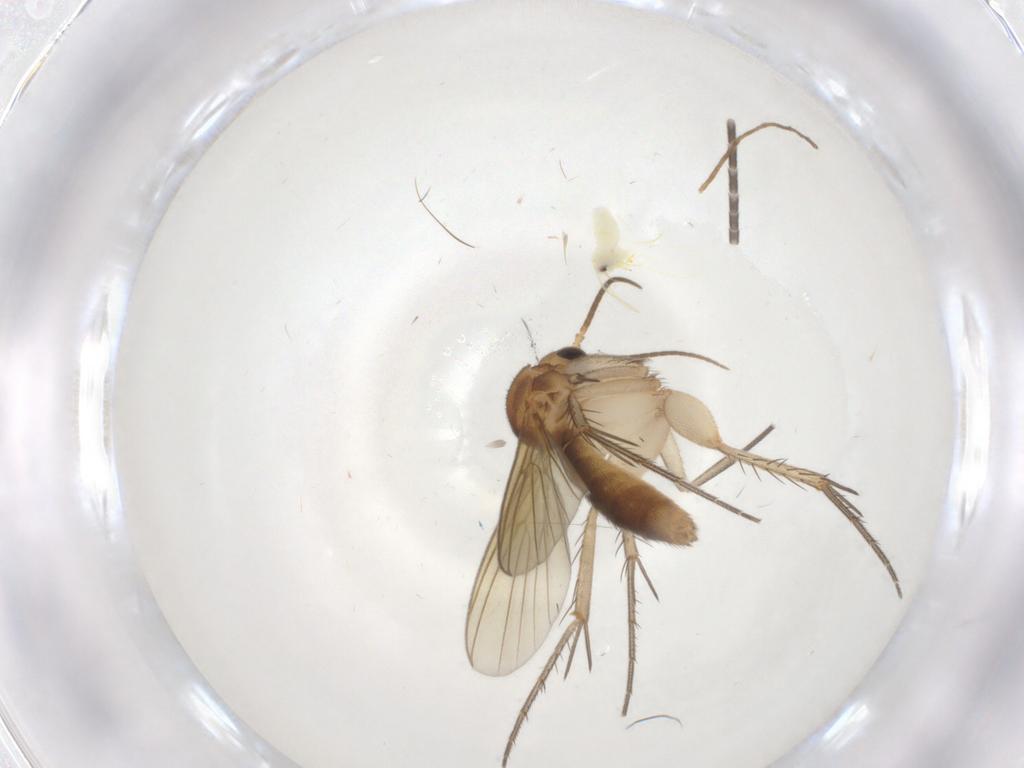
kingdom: Animalia
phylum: Arthropoda
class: Insecta
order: Diptera
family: Mycetophilidae
